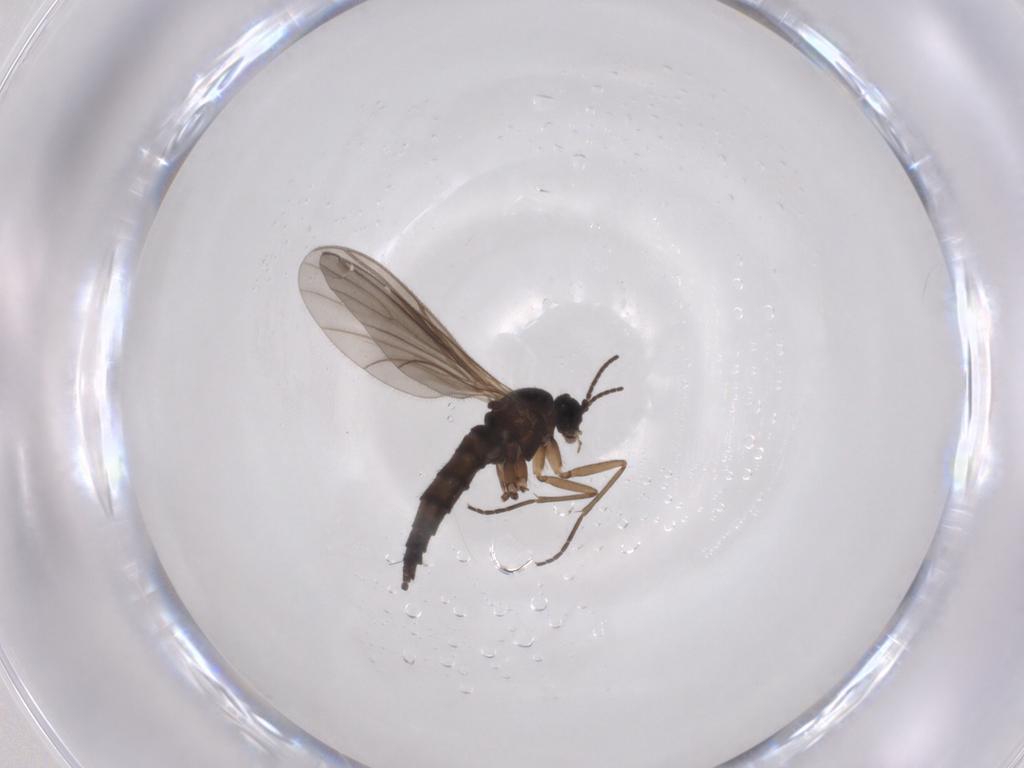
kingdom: Animalia
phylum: Arthropoda
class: Insecta
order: Diptera
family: Sciaridae
